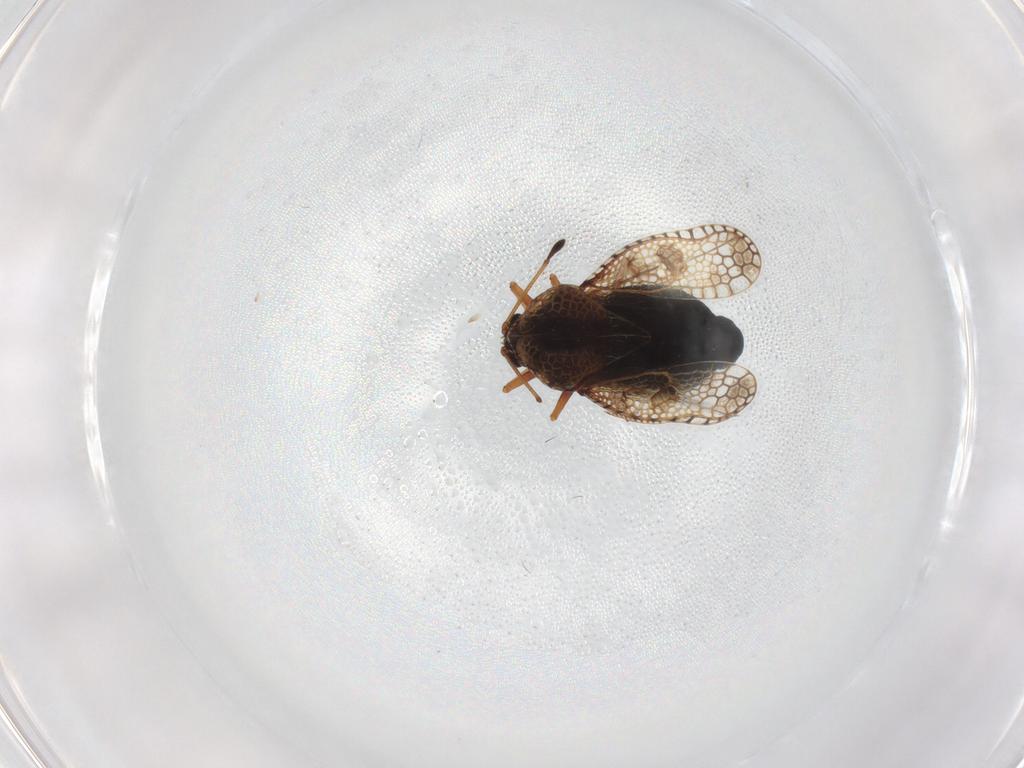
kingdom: Animalia
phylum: Arthropoda
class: Insecta
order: Hemiptera
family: Tingidae
